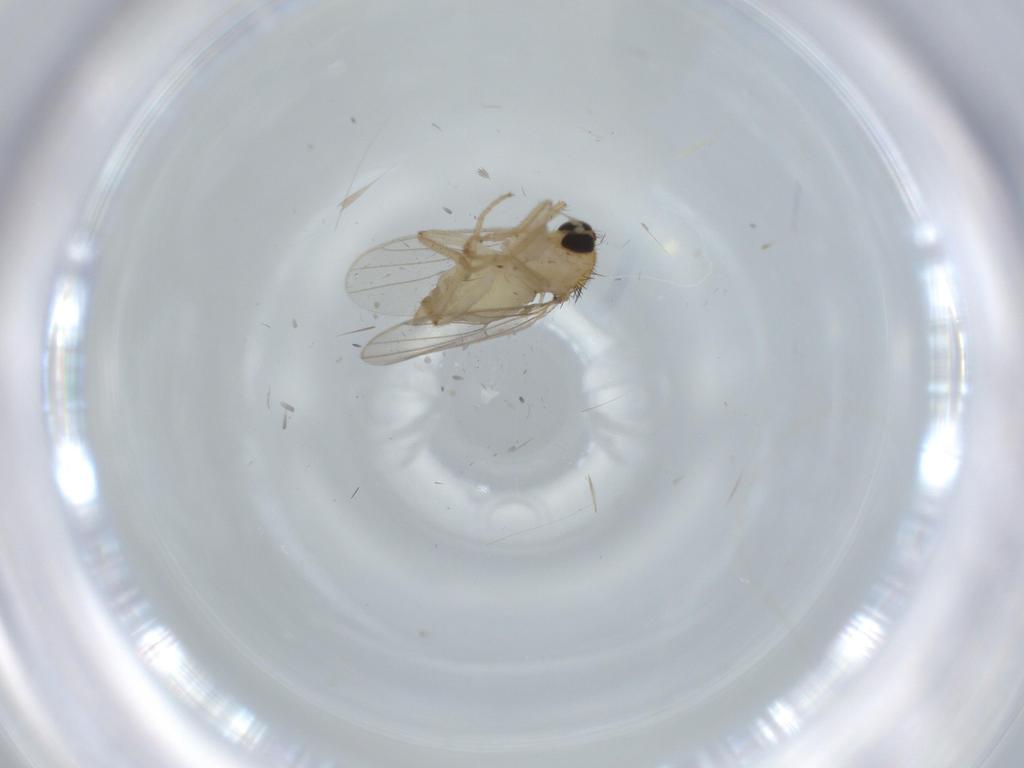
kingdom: Animalia
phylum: Arthropoda
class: Insecta
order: Diptera
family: Hybotidae
